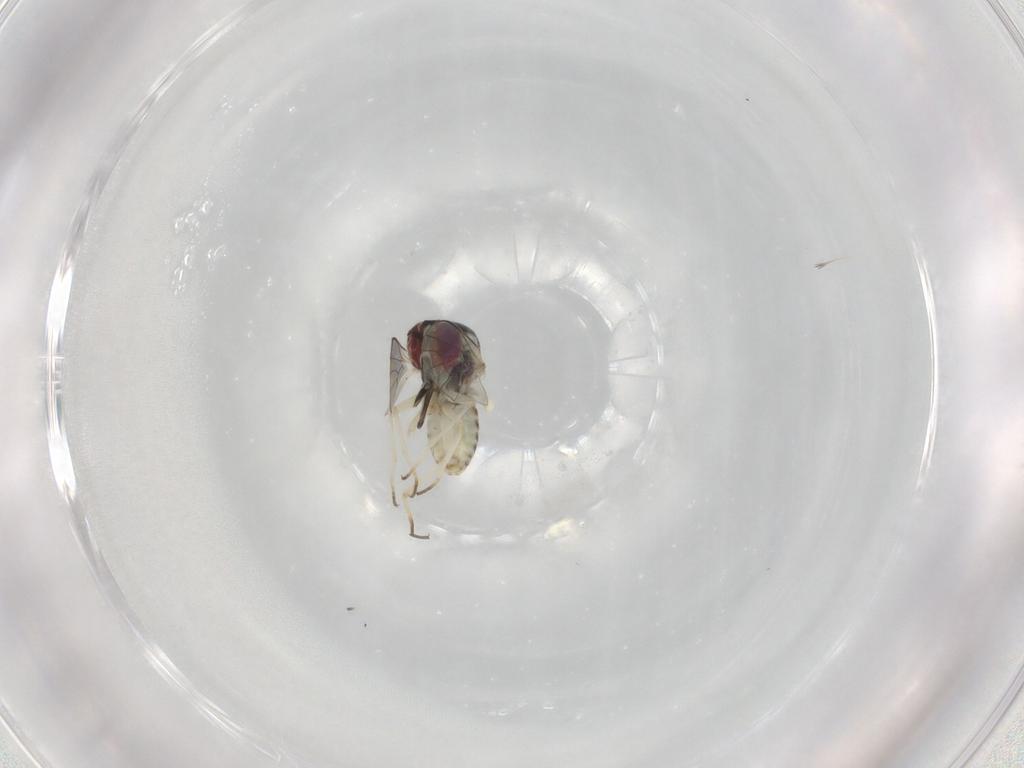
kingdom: Animalia
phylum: Arthropoda
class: Insecta
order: Diptera
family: Bombyliidae
